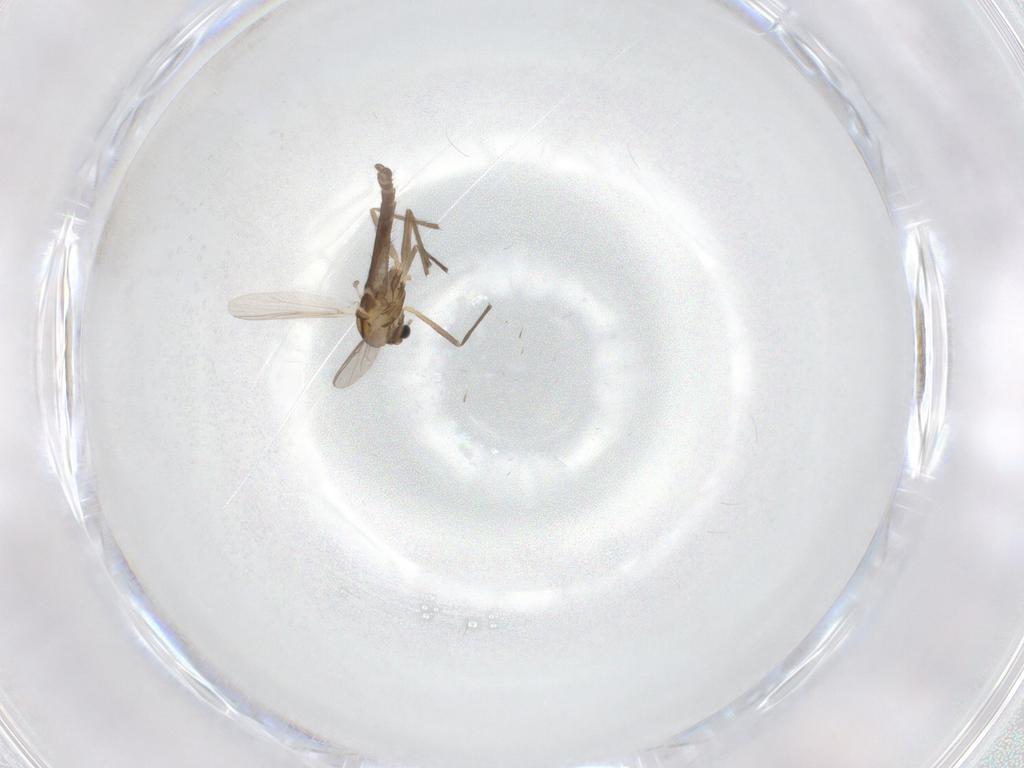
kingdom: Animalia
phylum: Arthropoda
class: Insecta
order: Diptera
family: Chironomidae
